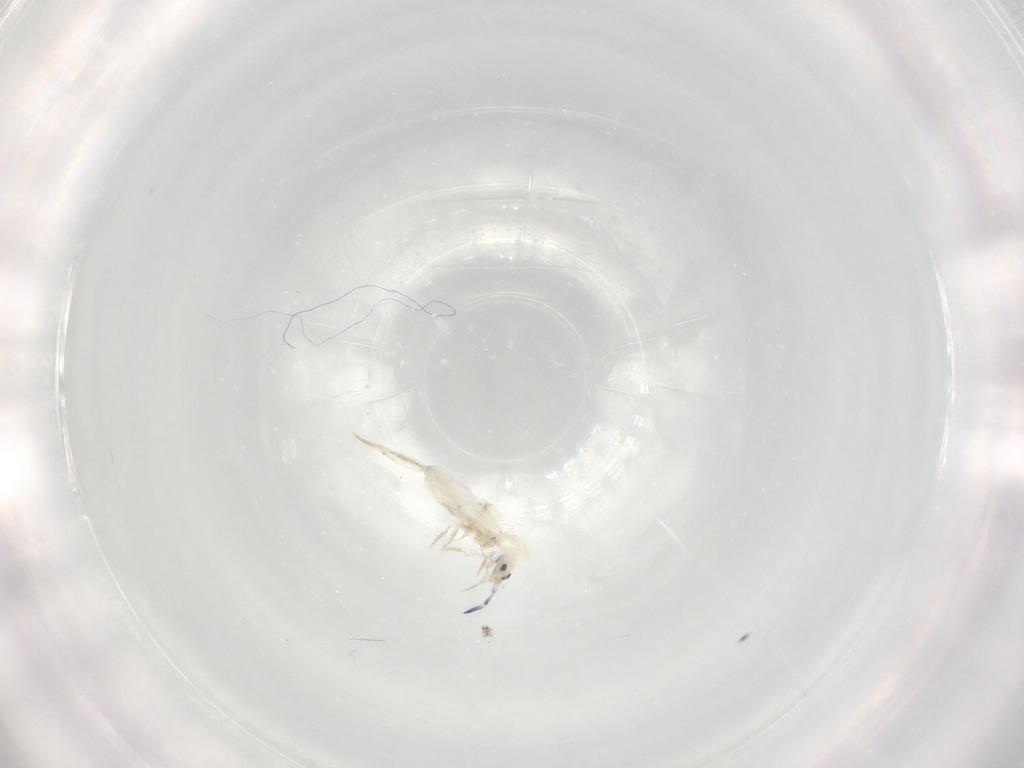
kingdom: Animalia
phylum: Arthropoda
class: Collembola
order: Entomobryomorpha
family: Entomobryidae
